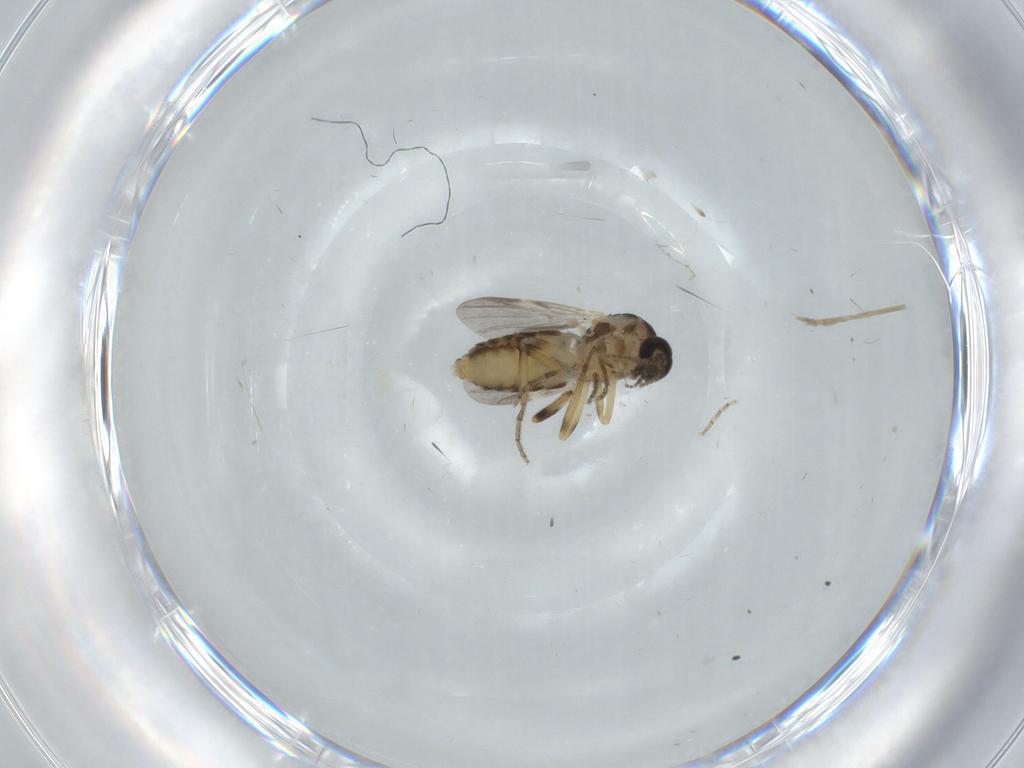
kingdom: Animalia
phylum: Arthropoda
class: Insecta
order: Diptera
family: Ceratopogonidae
